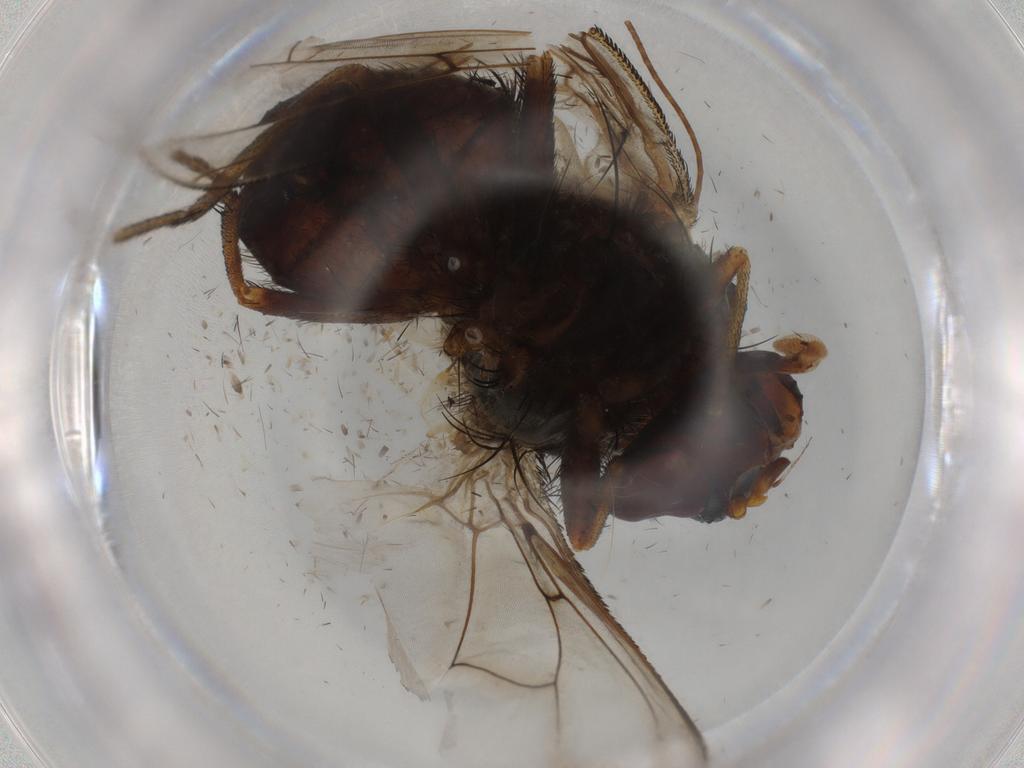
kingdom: Animalia
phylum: Arthropoda
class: Insecta
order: Diptera
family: Tachinidae
